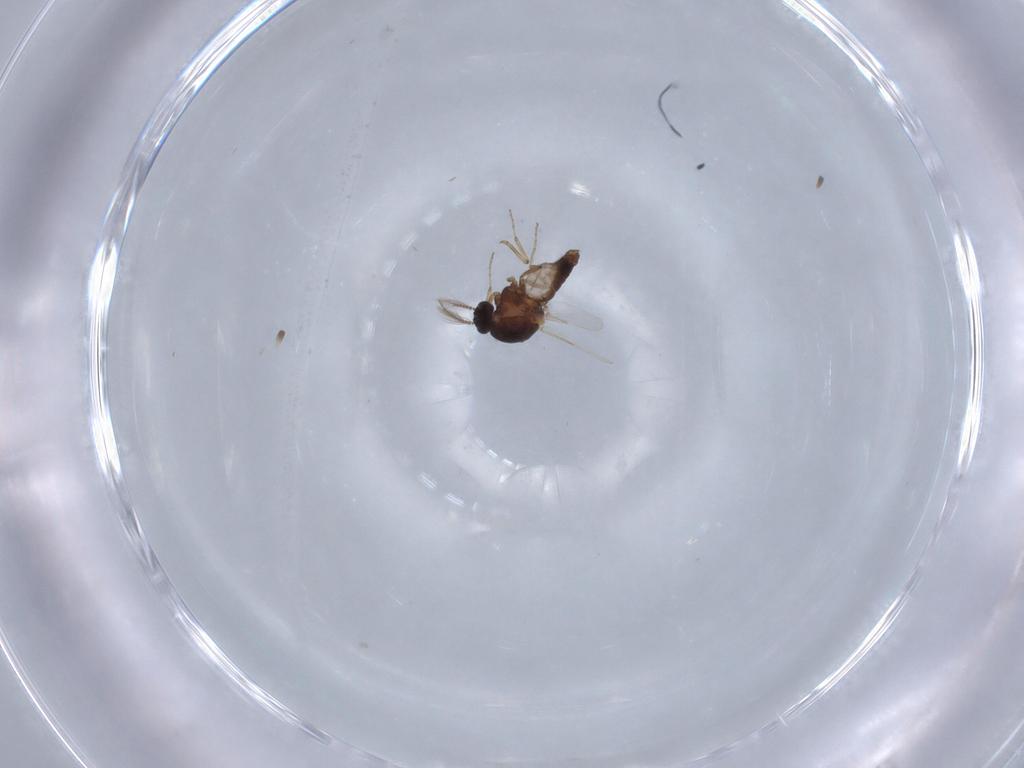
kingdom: Animalia
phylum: Arthropoda
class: Insecta
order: Diptera
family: Ceratopogonidae
